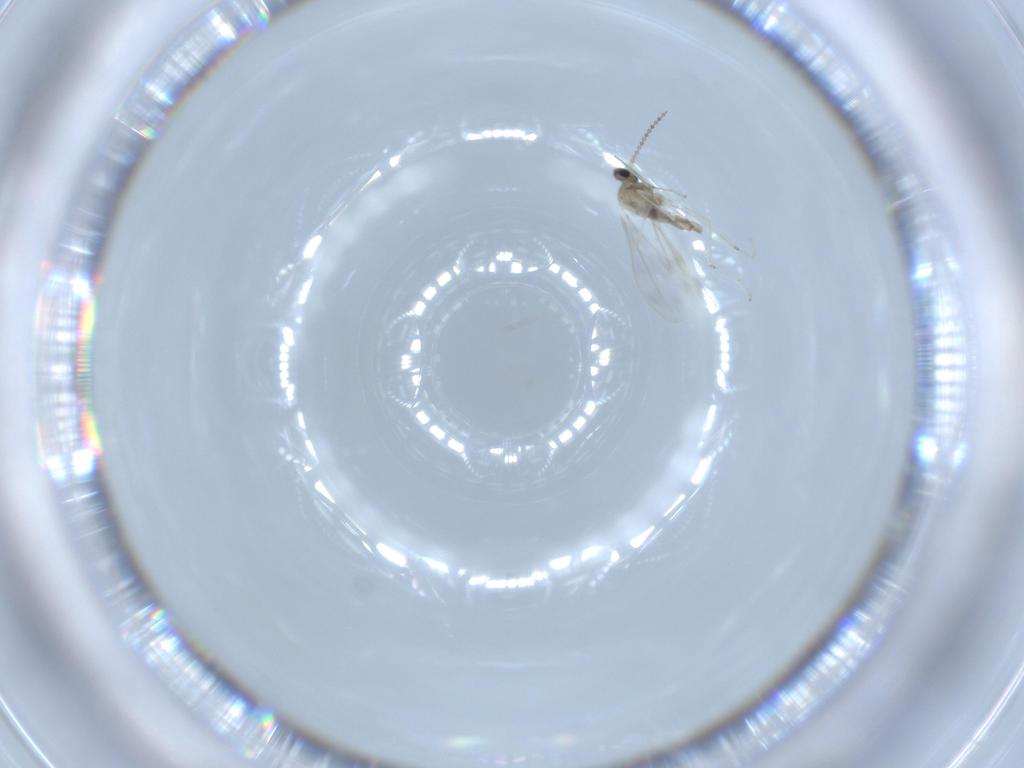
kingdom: Animalia
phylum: Arthropoda
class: Insecta
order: Diptera
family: Cecidomyiidae
